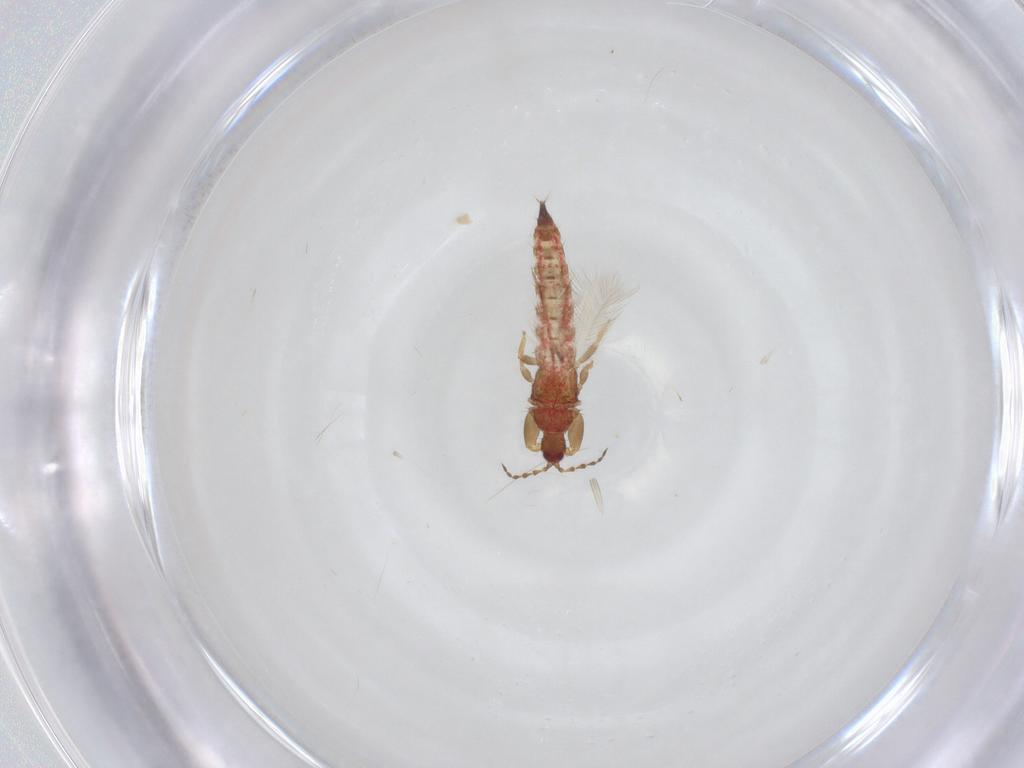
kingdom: Animalia
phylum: Arthropoda
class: Insecta
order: Thysanoptera
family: Phlaeothripidae
